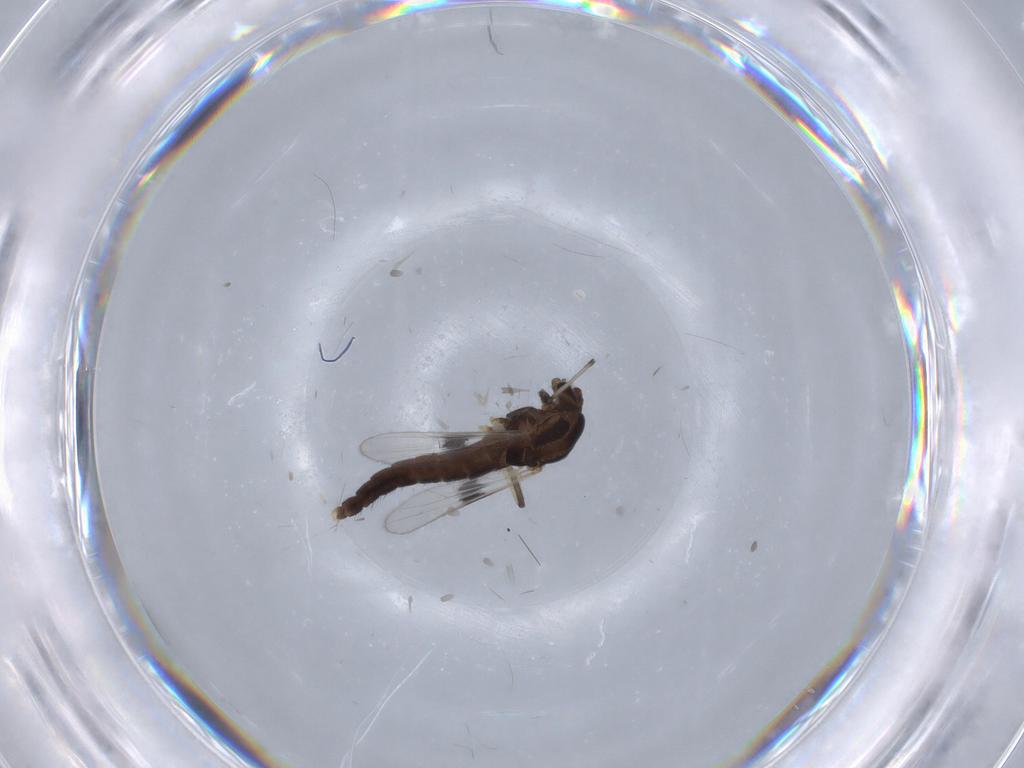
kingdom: Animalia
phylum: Arthropoda
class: Insecta
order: Diptera
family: Chironomidae
